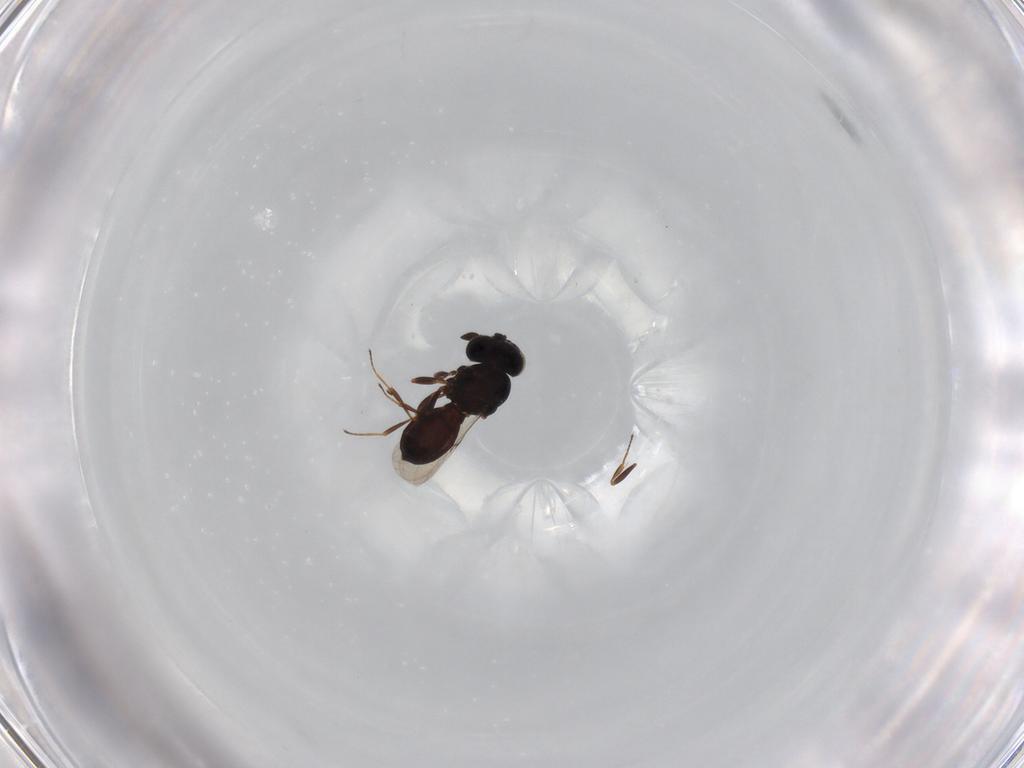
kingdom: Animalia
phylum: Arthropoda
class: Insecta
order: Hymenoptera
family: Scelionidae
